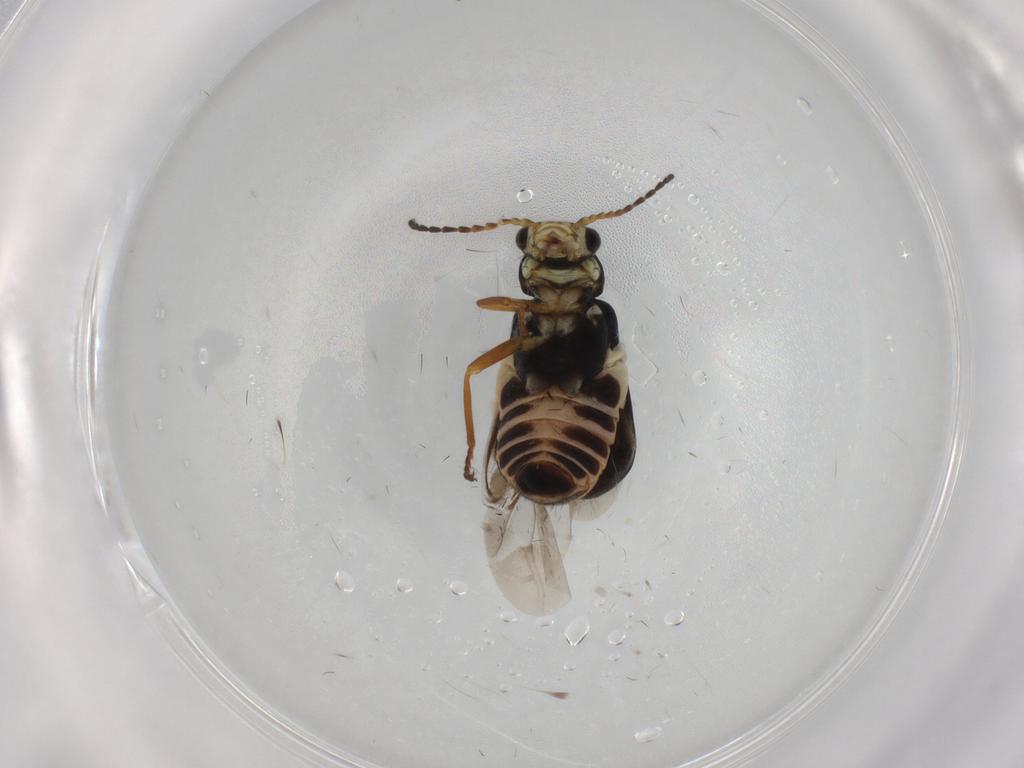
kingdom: Animalia
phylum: Arthropoda
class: Insecta
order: Coleoptera
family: Melyridae
